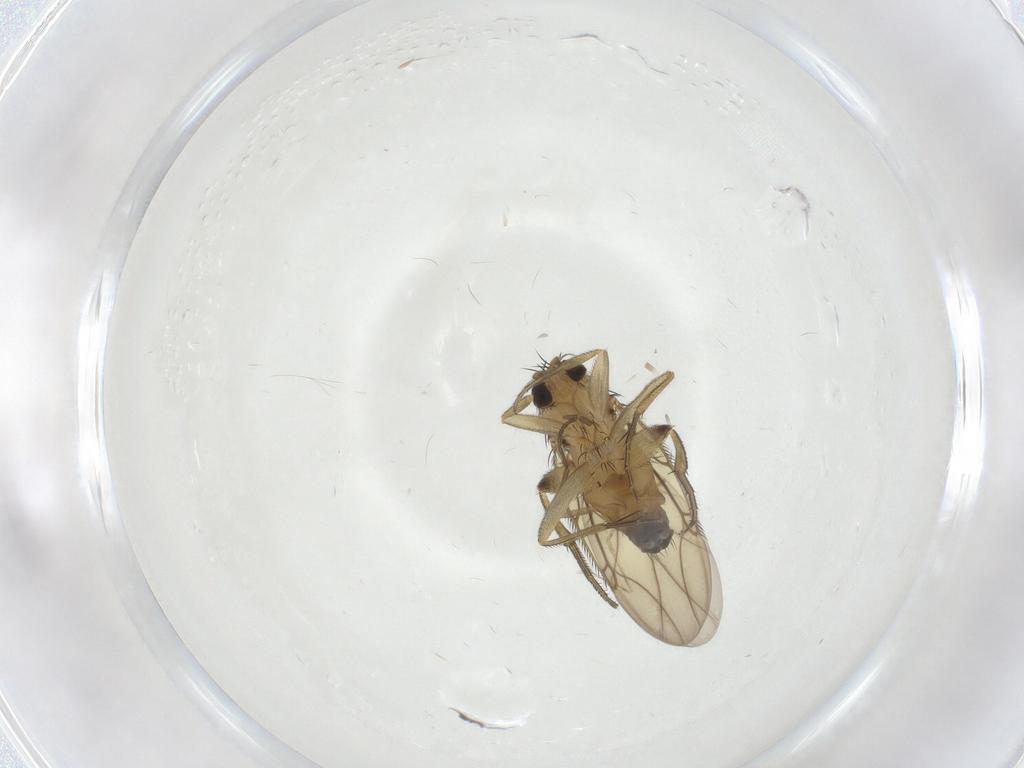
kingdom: Animalia
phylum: Arthropoda
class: Insecta
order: Diptera
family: Phoridae
